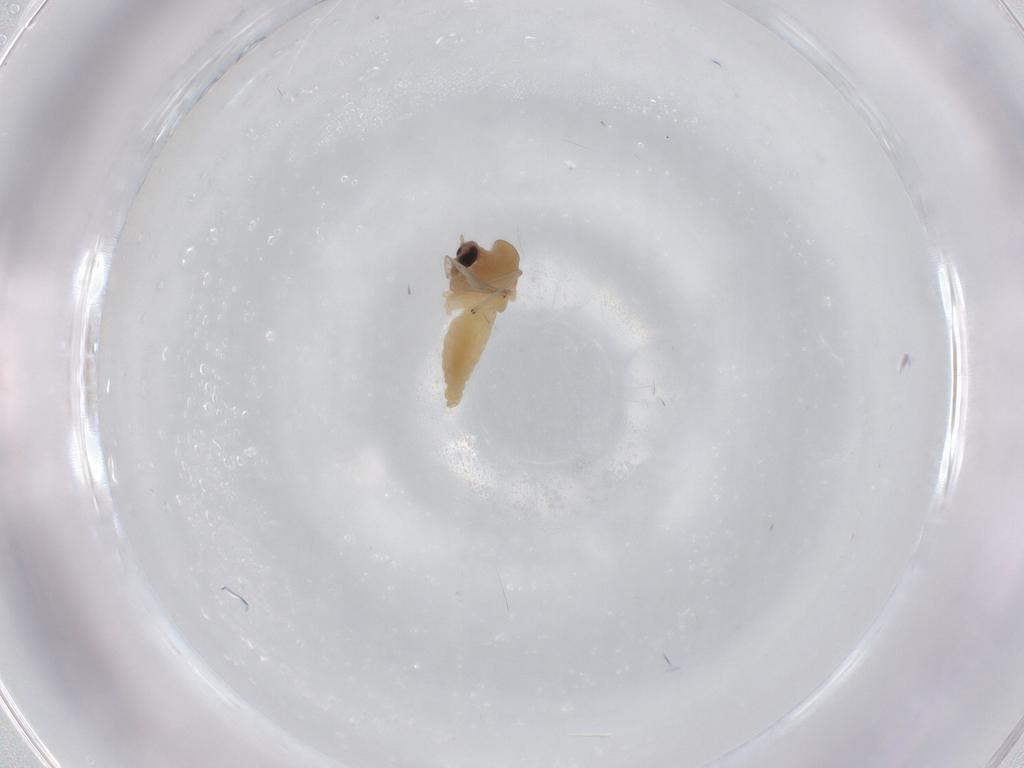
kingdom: Animalia
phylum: Arthropoda
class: Insecta
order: Diptera
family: Chironomidae
